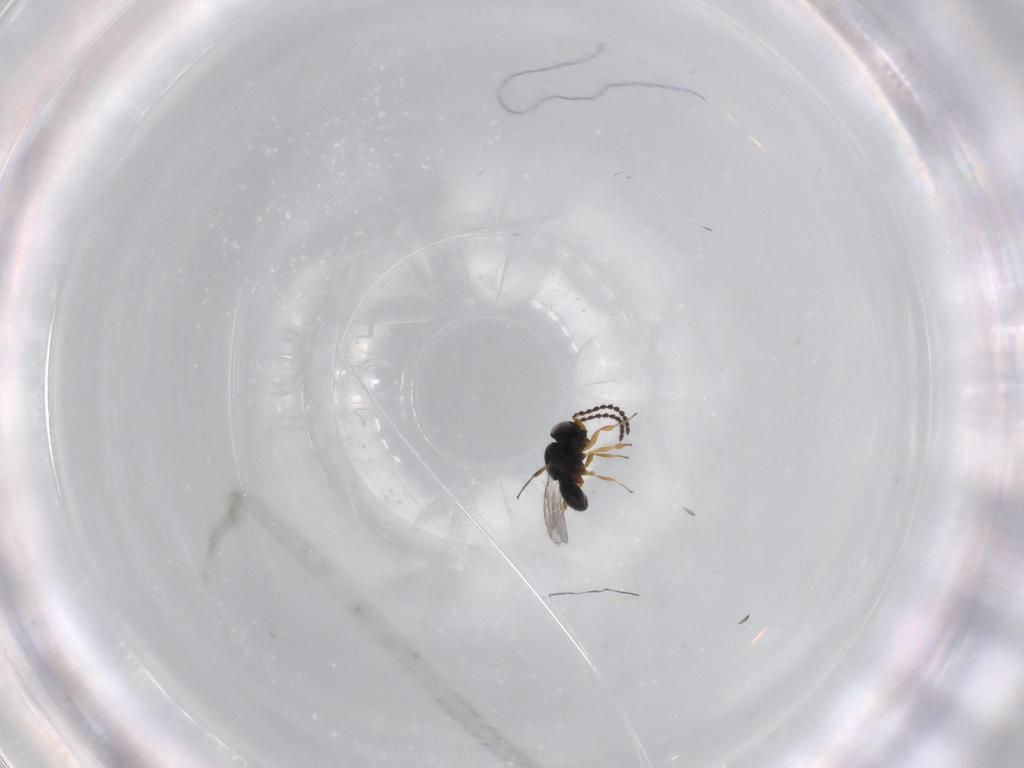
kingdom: Animalia
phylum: Arthropoda
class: Insecta
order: Hymenoptera
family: Scelionidae
